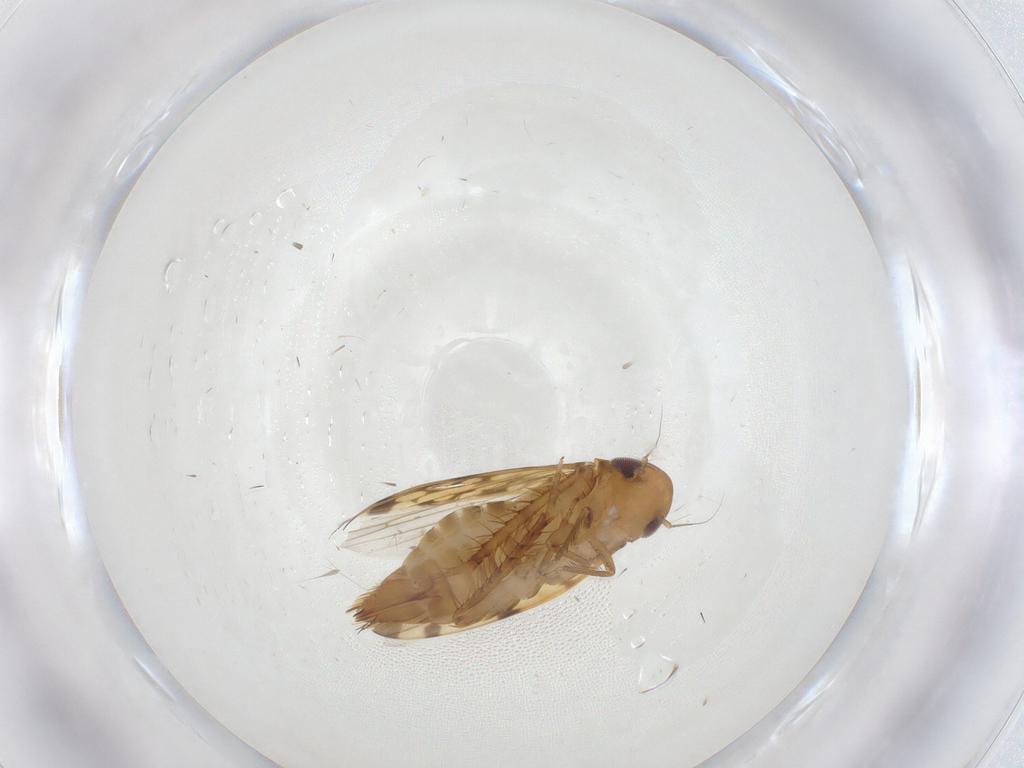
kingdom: Animalia
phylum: Arthropoda
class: Insecta
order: Hemiptera
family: Cicadellidae
